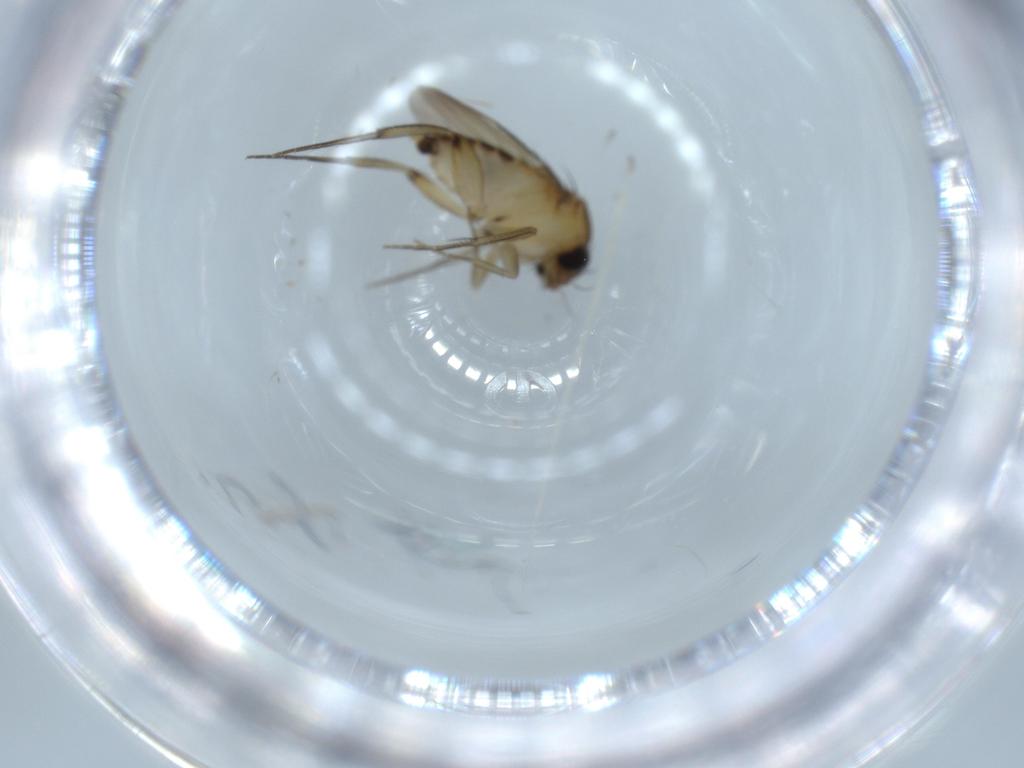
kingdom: Animalia
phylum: Arthropoda
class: Insecta
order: Diptera
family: Phoridae
